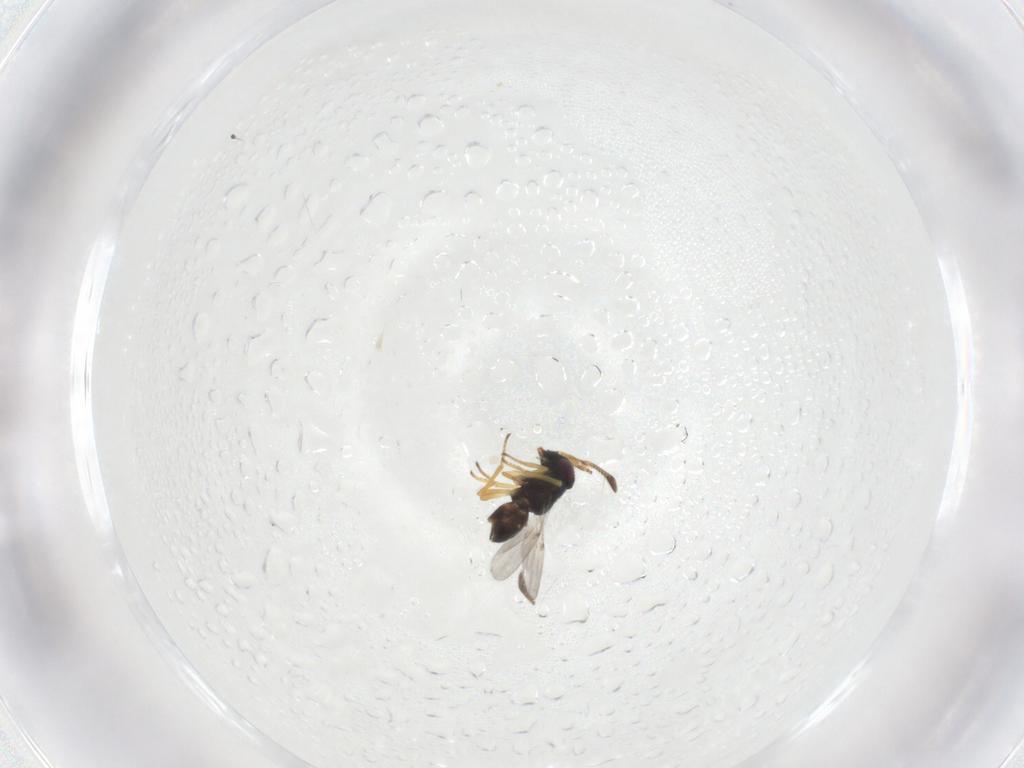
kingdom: Animalia
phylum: Arthropoda
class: Insecta
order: Hymenoptera
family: Encyrtidae
